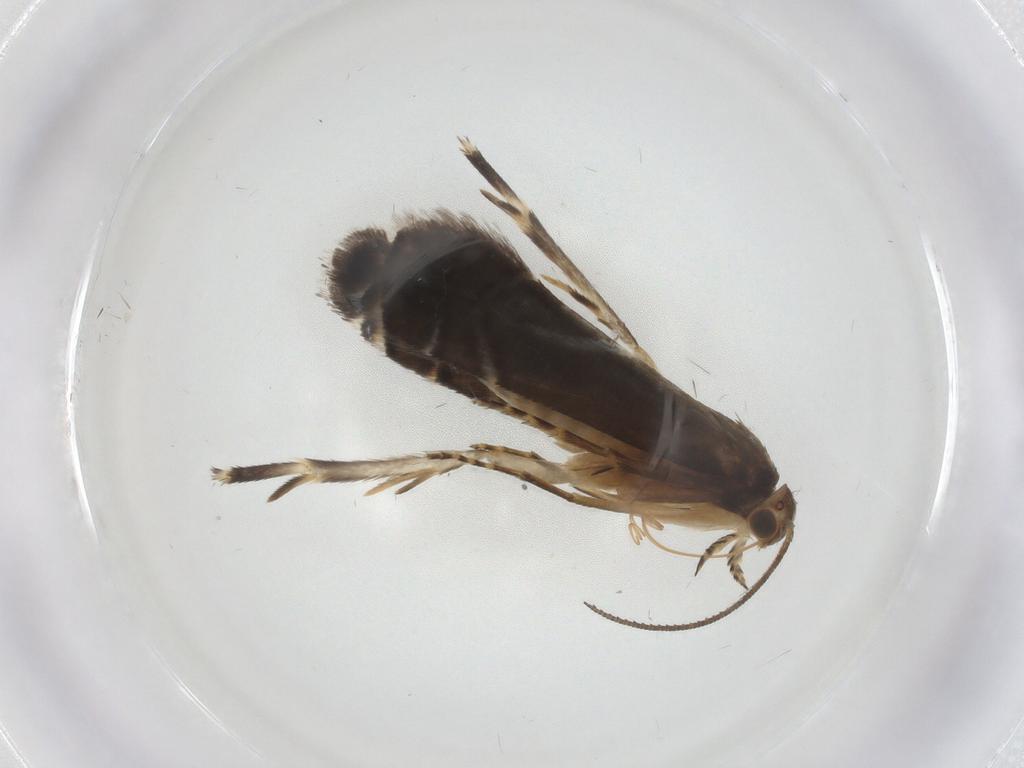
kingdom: Animalia
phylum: Arthropoda
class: Insecta
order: Lepidoptera
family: Glyphipterigidae
